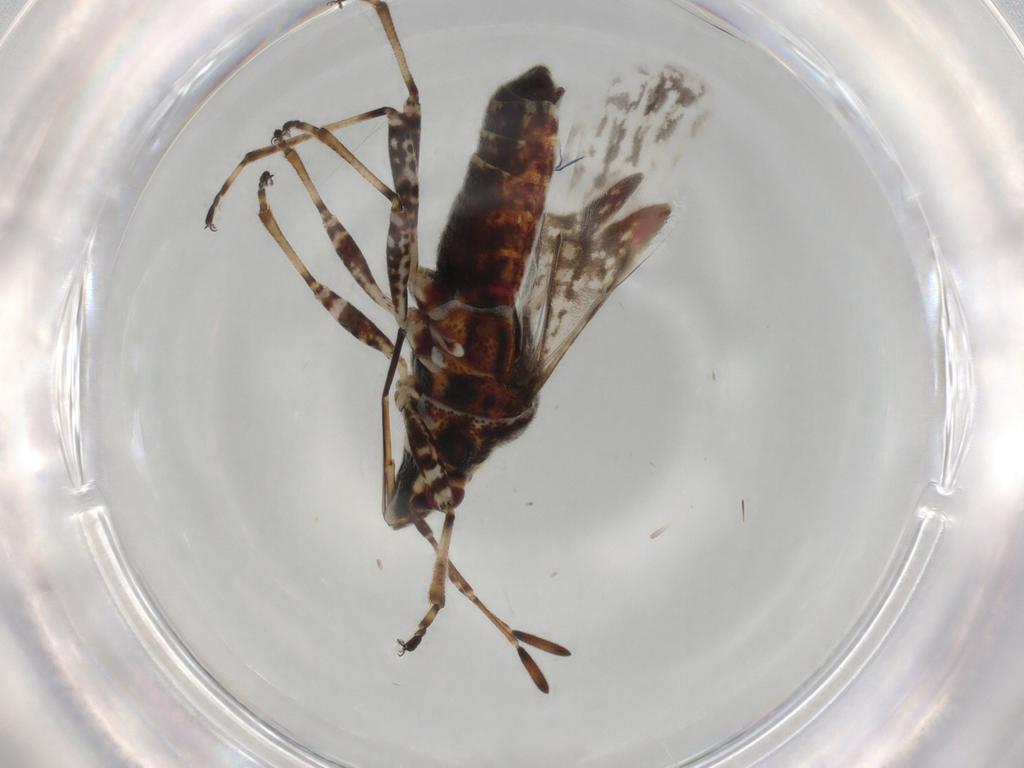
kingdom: Animalia
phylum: Arthropoda
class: Insecta
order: Hemiptera
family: Lygaeidae
